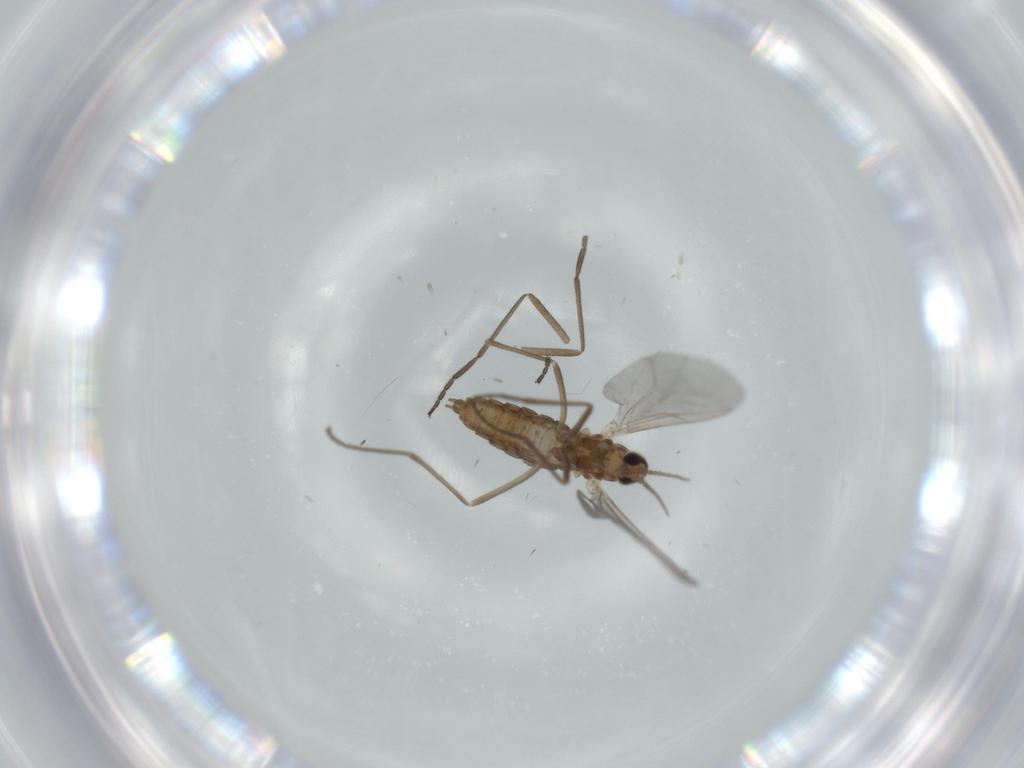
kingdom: Animalia
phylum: Arthropoda
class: Insecta
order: Diptera
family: Cecidomyiidae
